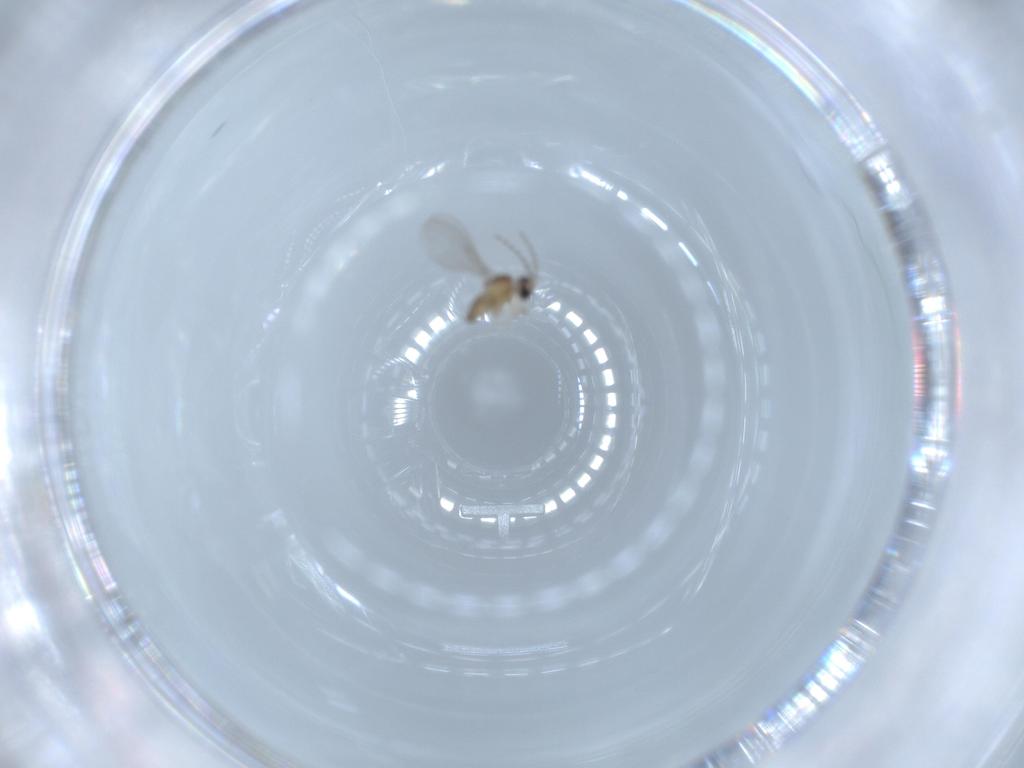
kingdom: Animalia
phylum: Arthropoda
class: Insecta
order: Diptera
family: Cecidomyiidae
